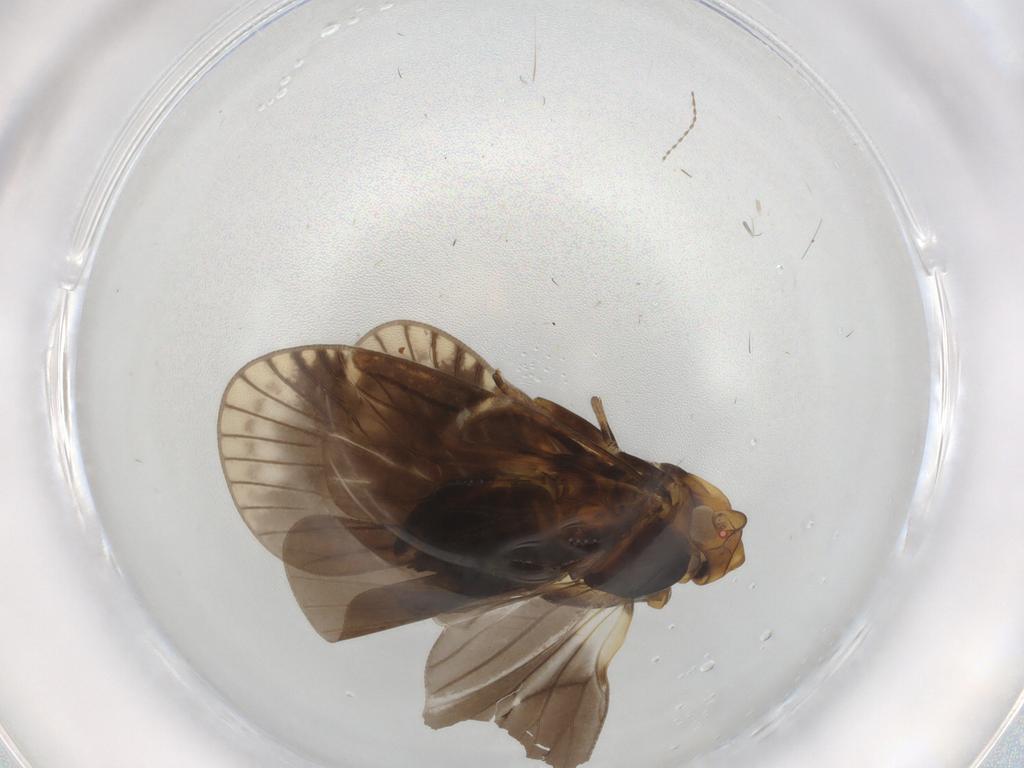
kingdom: Animalia
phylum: Arthropoda
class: Insecta
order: Hemiptera
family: Cixiidae
